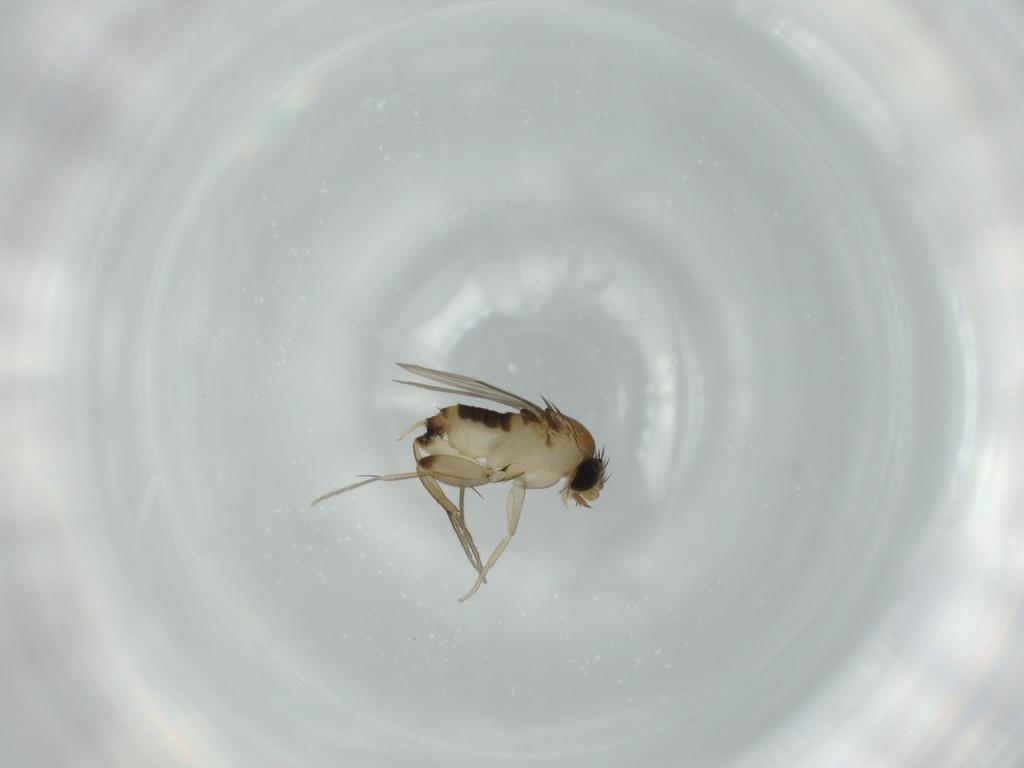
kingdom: Animalia
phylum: Arthropoda
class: Insecta
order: Diptera
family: Phoridae
